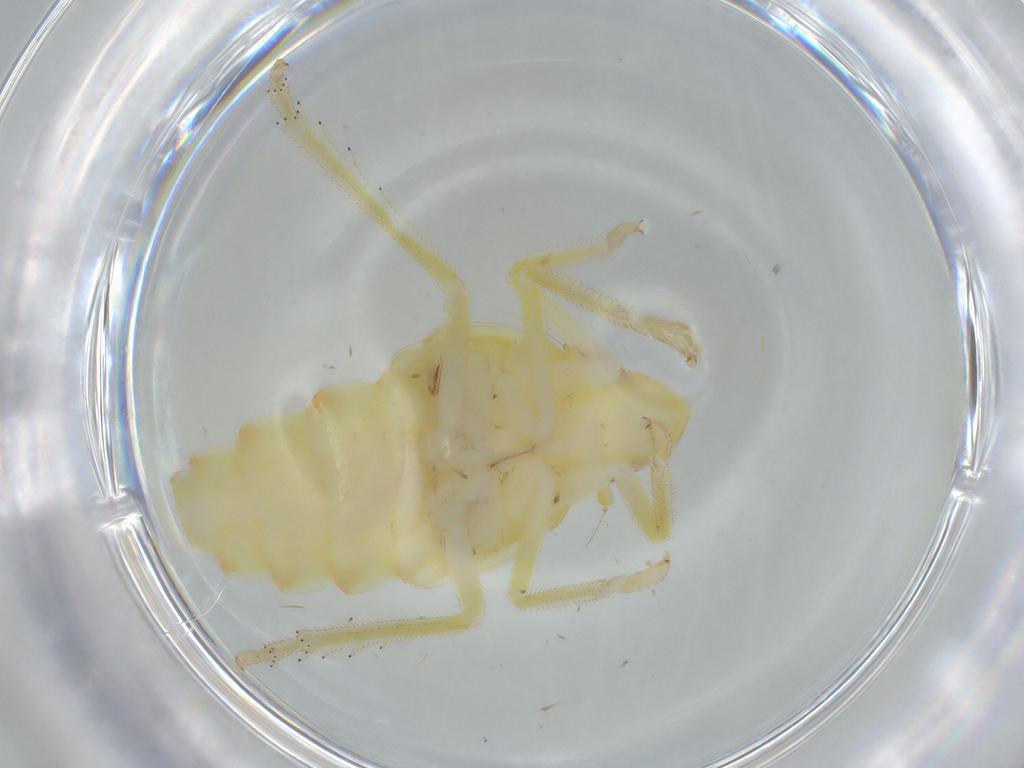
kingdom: Animalia
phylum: Arthropoda
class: Insecta
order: Hemiptera
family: Tropiduchidae
